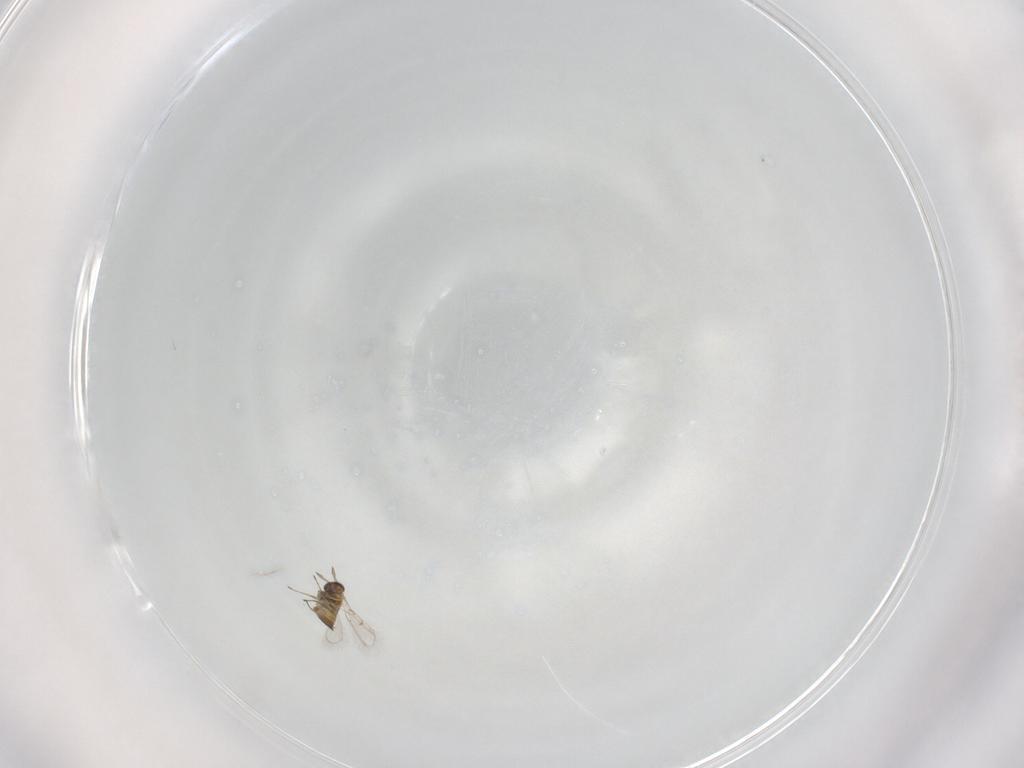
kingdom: Animalia
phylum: Arthropoda
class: Insecta
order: Hymenoptera
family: Trichogrammatidae
